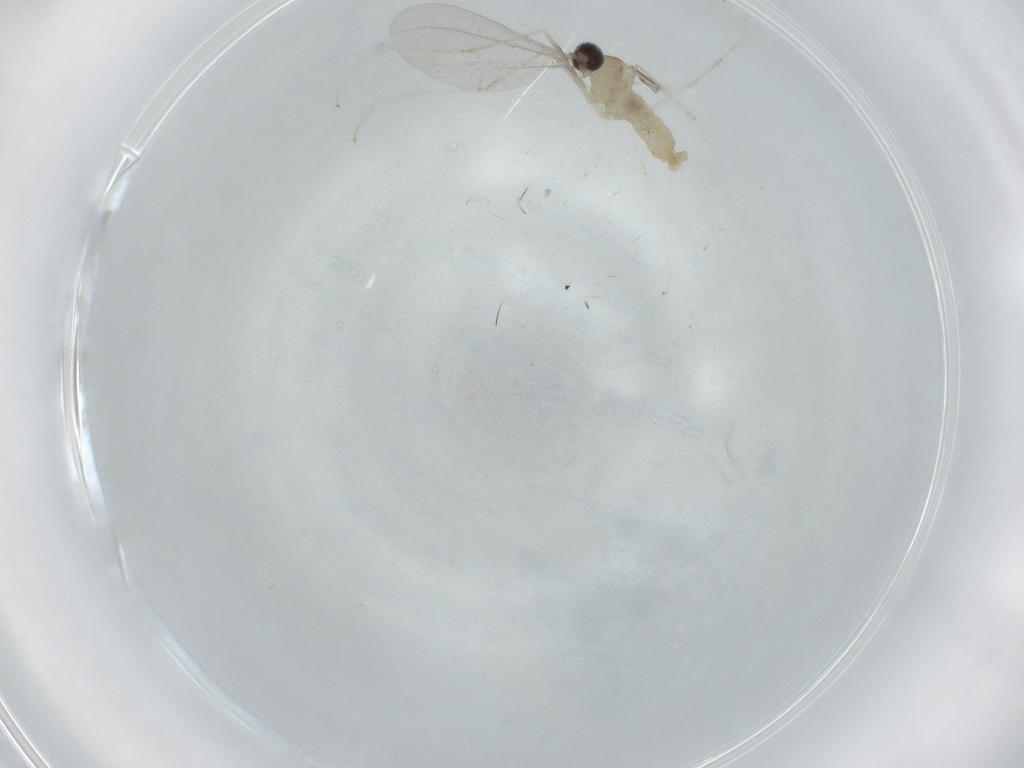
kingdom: Animalia
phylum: Arthropoda
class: Insecta
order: Diptera
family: Cecidomyiidae
